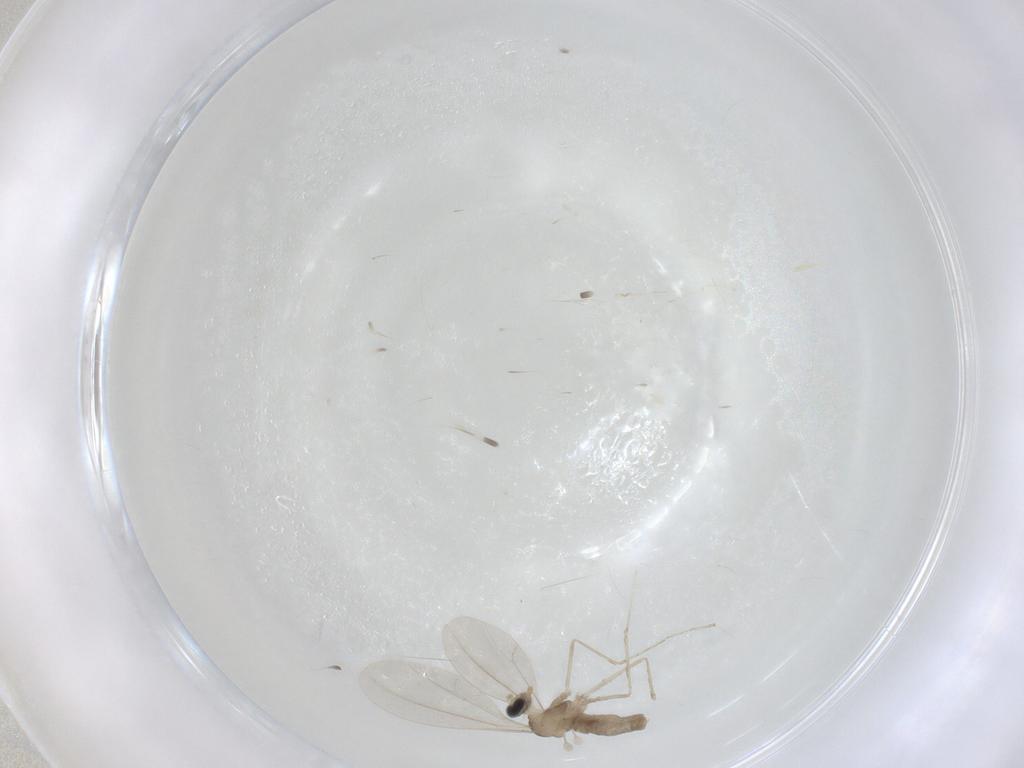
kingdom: Animalia
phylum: Arthropoda
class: Insecta
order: Diptera
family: Cecidomyiidae
